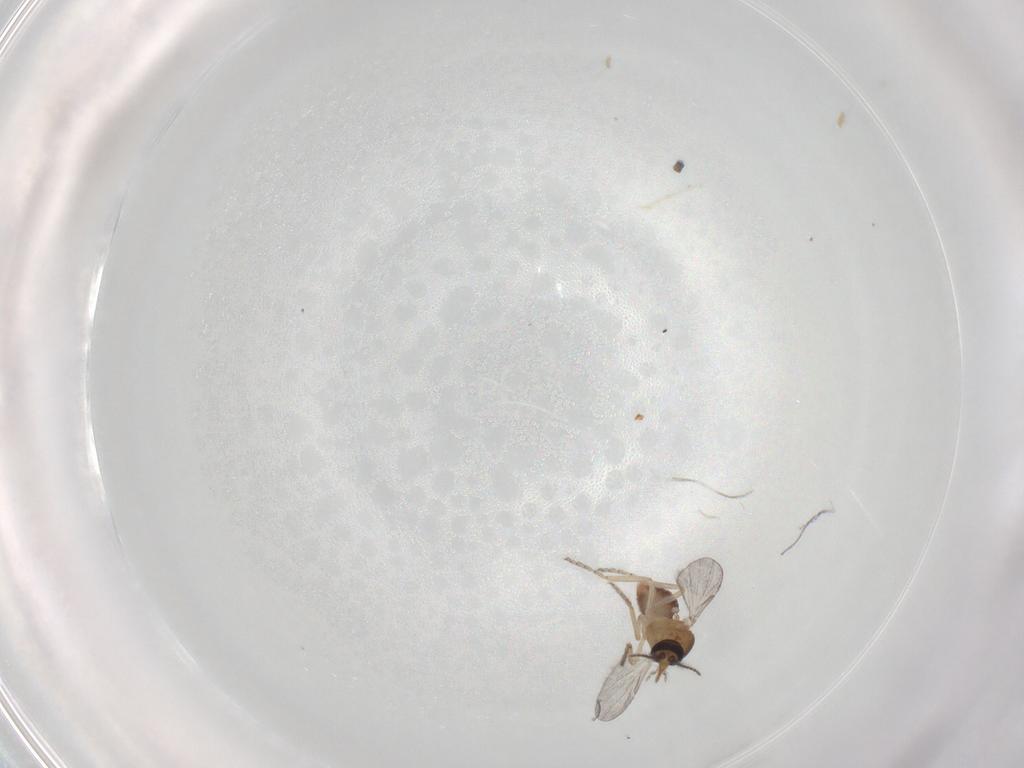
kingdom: Animalia
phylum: Arthropoda
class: Insecta
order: Diptera
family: Ceratopogonidae
